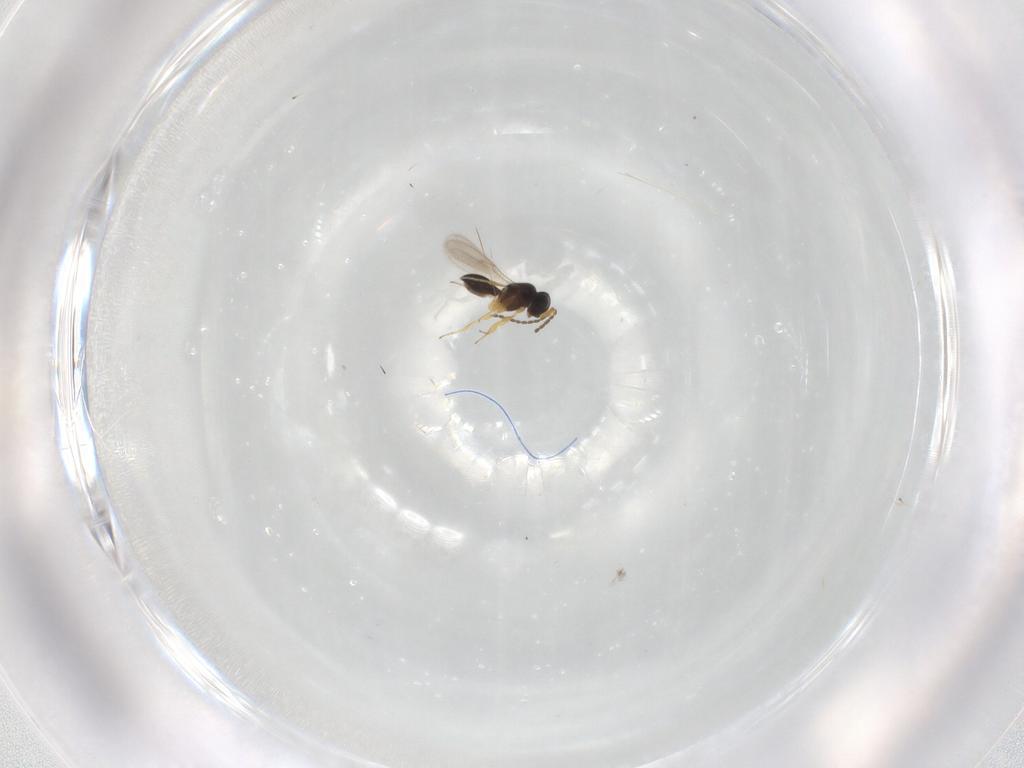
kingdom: Animalia
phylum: Arthropoda
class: Insecta
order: Hymenoptera
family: Scelionidae
